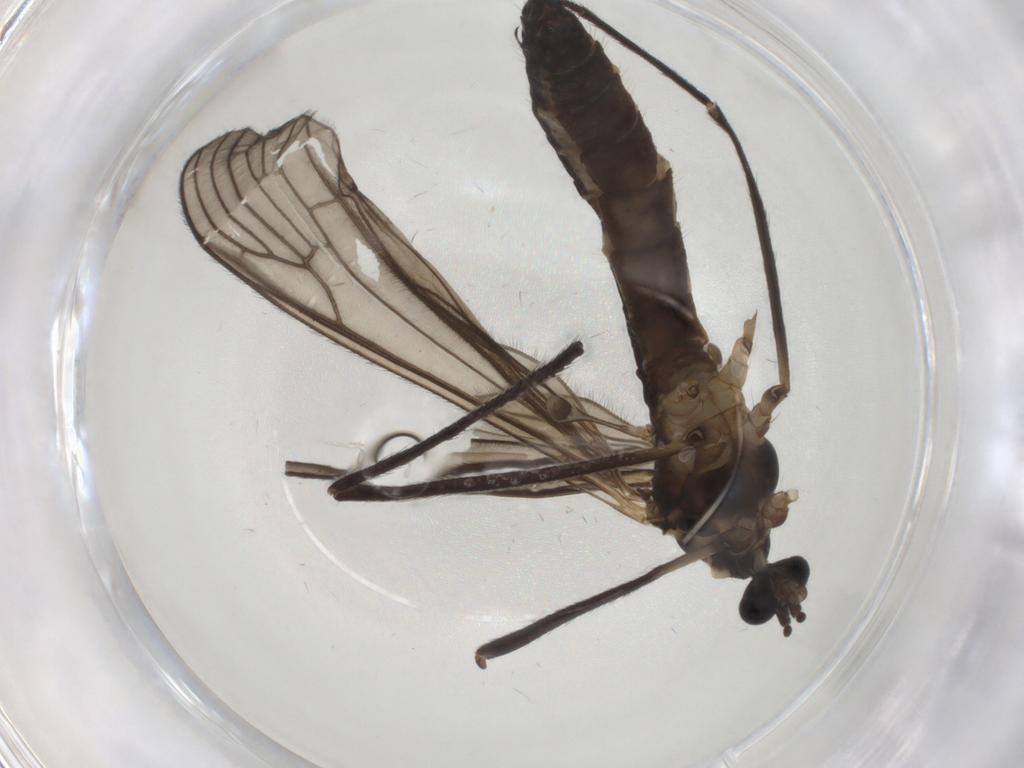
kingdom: Animalia
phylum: Arthropoda
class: Insecta
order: Diptera
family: Limoniidae
